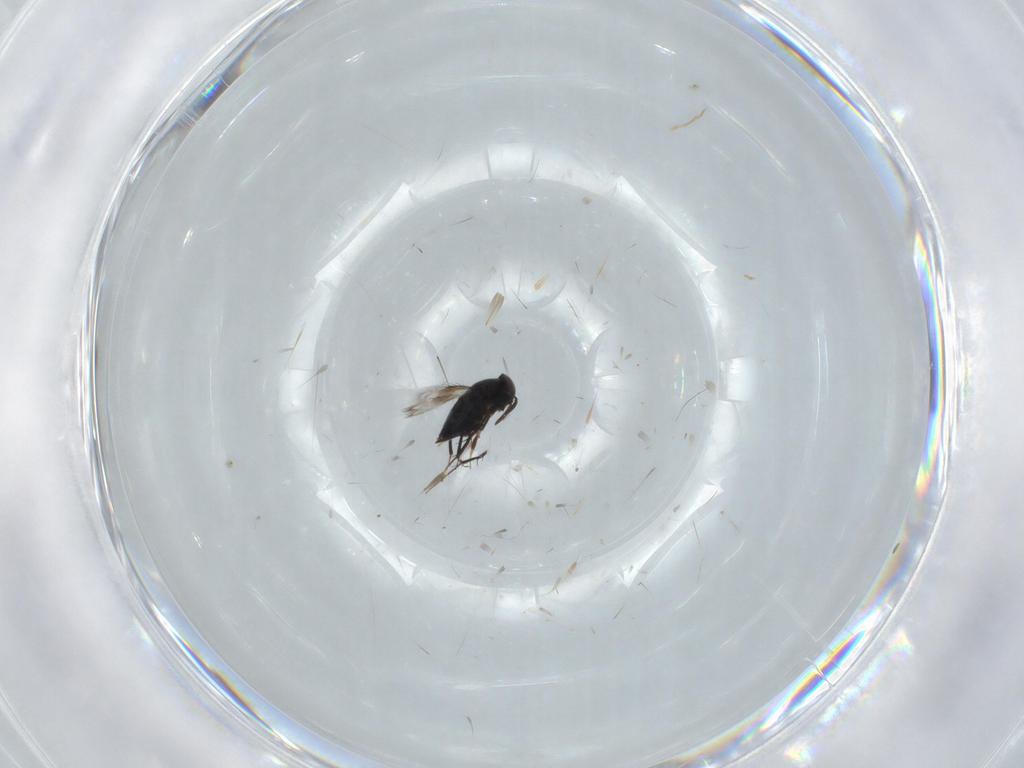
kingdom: Animalia
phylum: Arthropoda
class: Insecta
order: Hymenoptera
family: Signiphoridae
